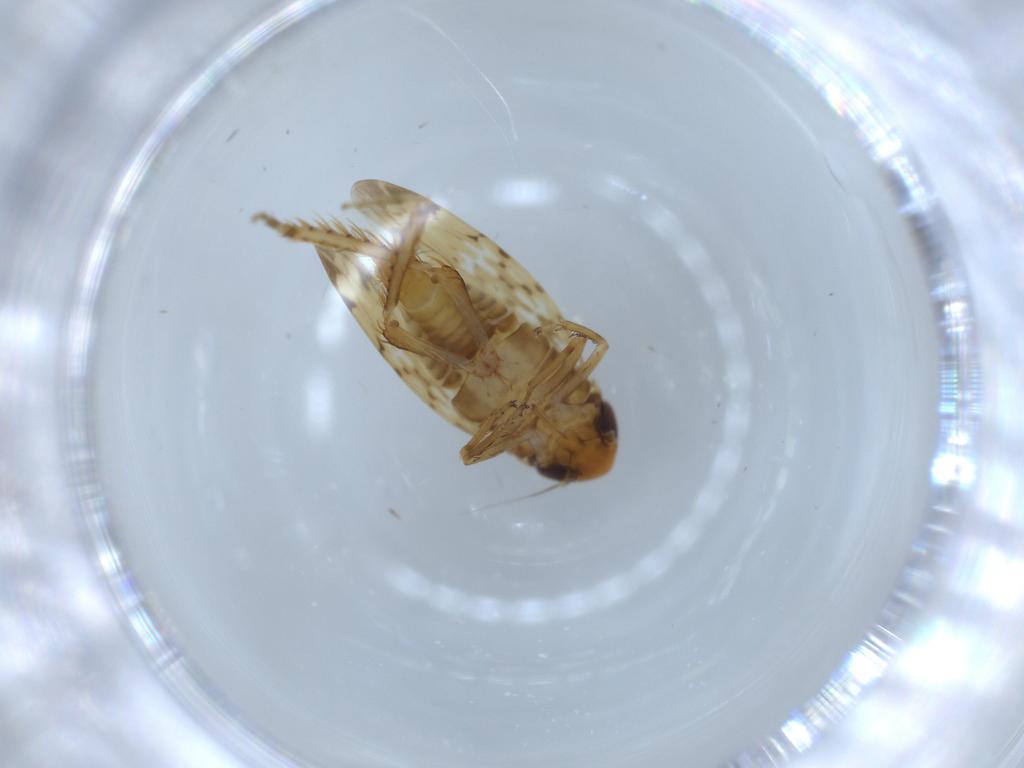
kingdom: Animalia
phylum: Arthropoda
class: Insecta
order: Hemiptera
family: Cicadellidae
